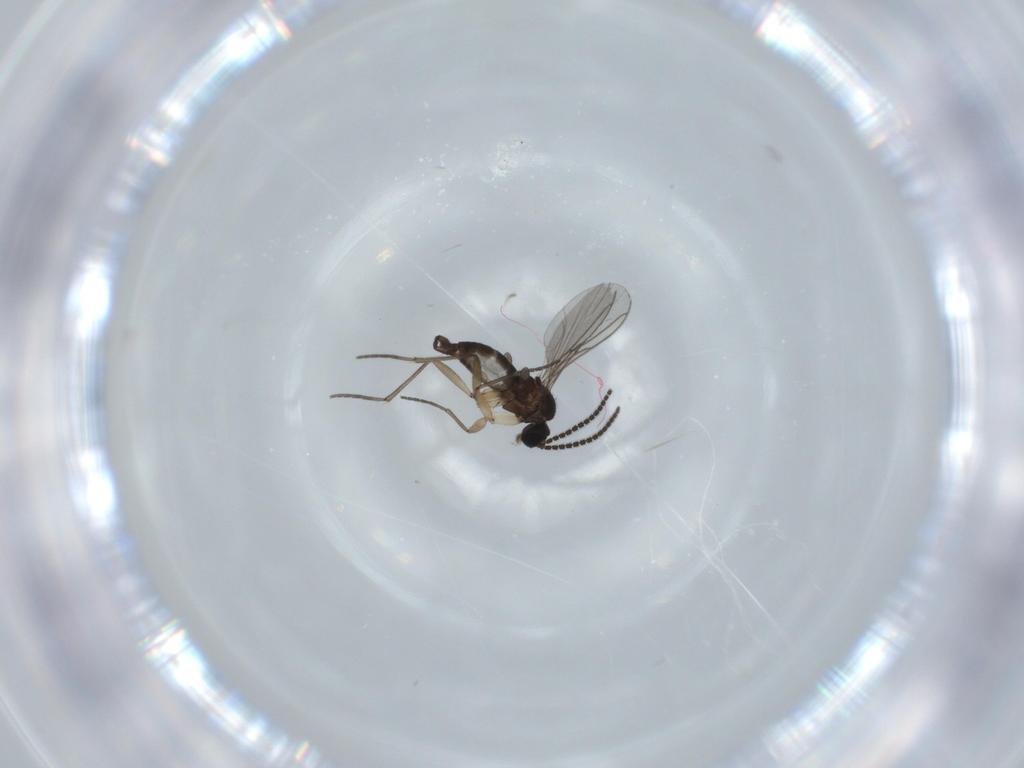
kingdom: Animalia
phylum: Arthropoda
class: Insecta
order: Diptera
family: Sciaridae
